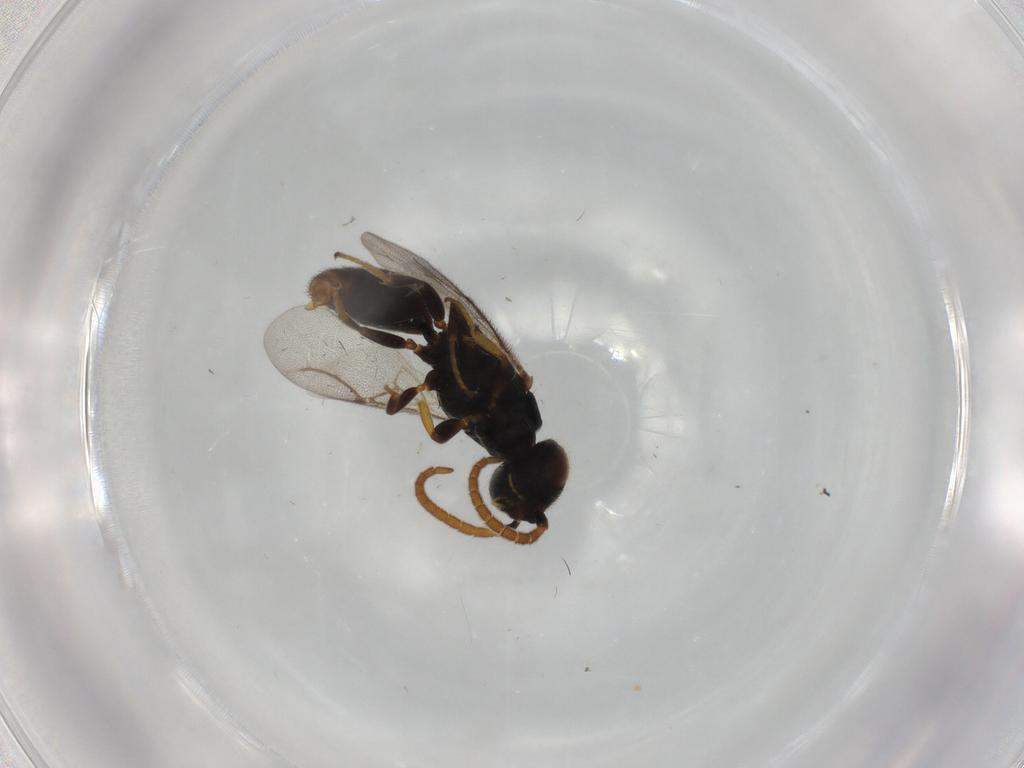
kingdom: Animalia
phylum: Arthropoda
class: Insecta
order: Hymenoptera
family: Bethylidae
